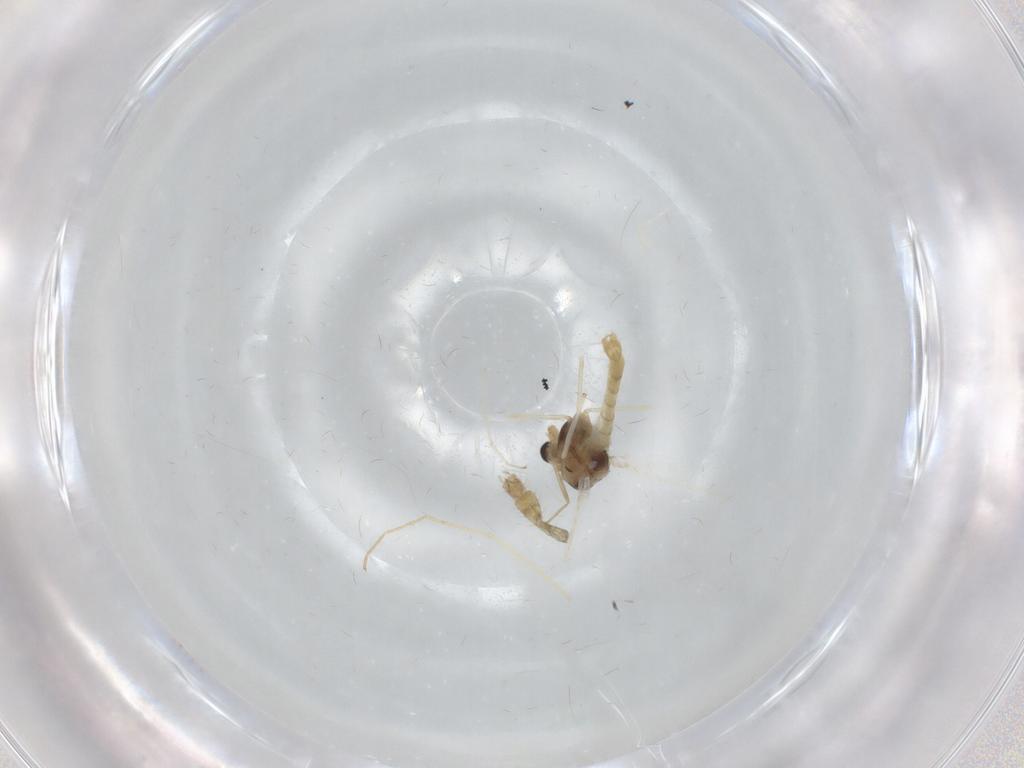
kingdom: Animalia
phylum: Arthropoda
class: Insecta
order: Diptera
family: Chironomidae
